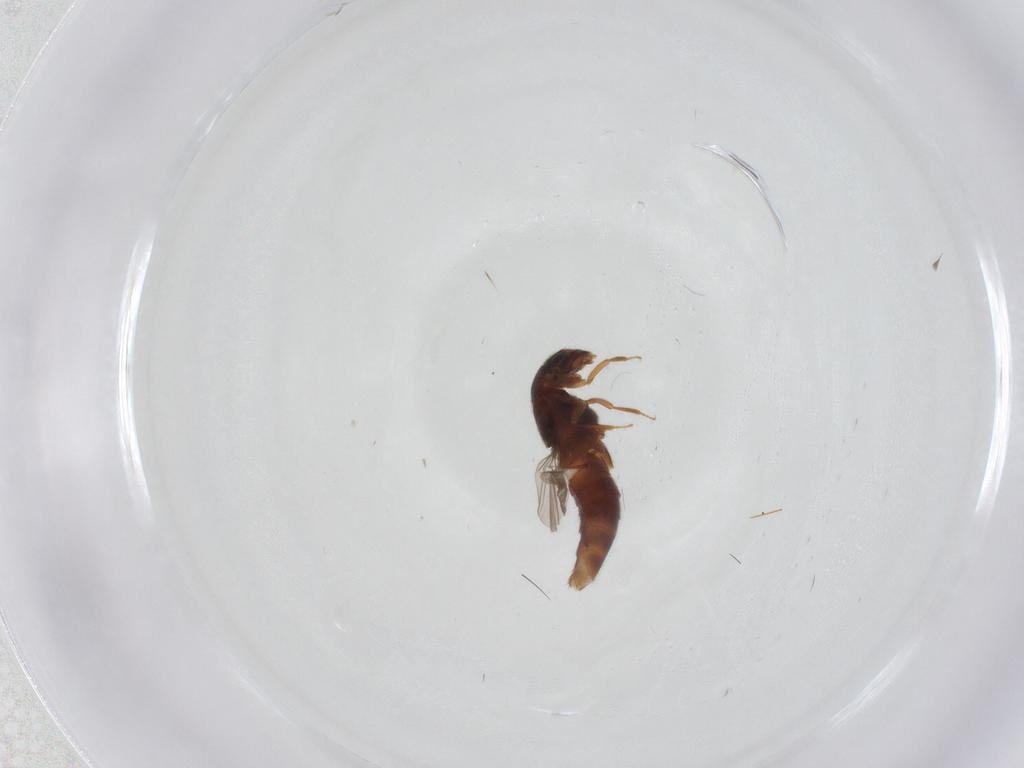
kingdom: Animalia
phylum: Arthropoda
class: Insecta
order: Coleoptera
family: Staphylinidae
